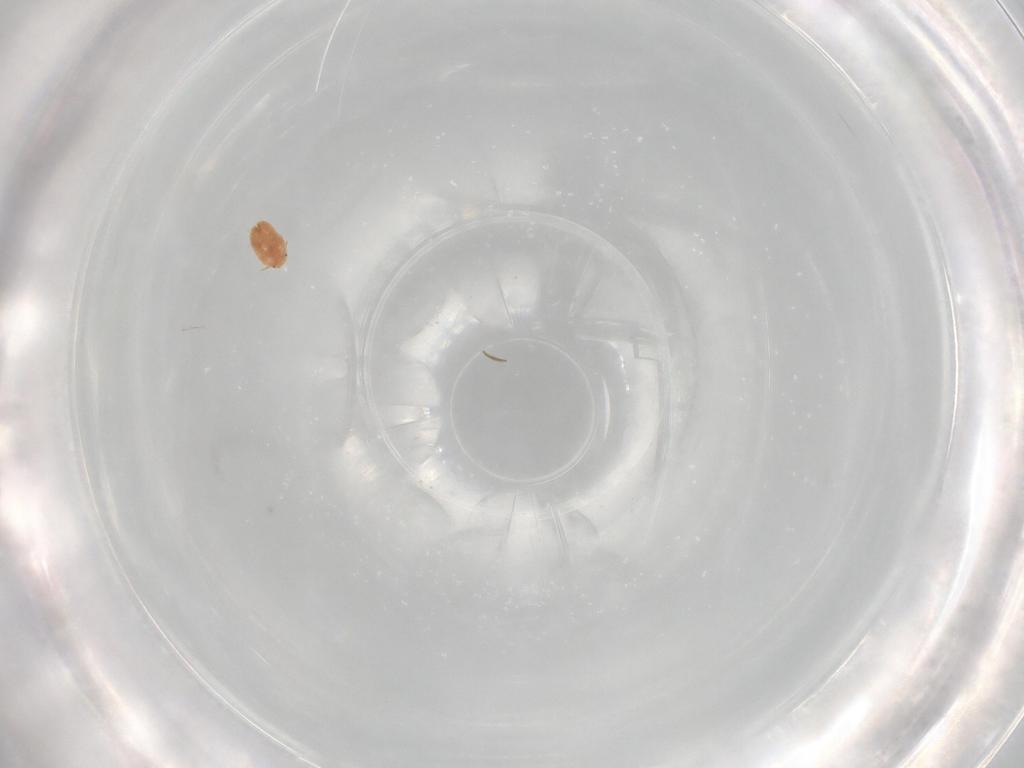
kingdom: Animalia
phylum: Arthropoda
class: Insecta
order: Hemiptera
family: Coccidae
